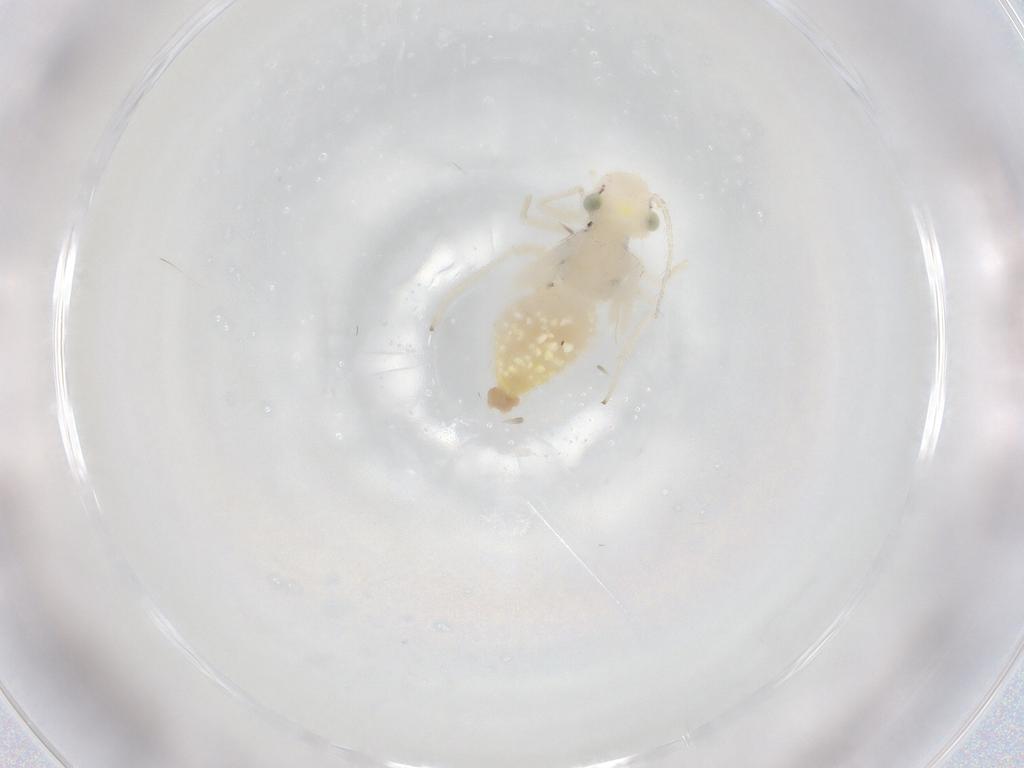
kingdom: Animalia
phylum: Arthropoda
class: Insecta
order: Psocodea
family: Caeciliusidae
